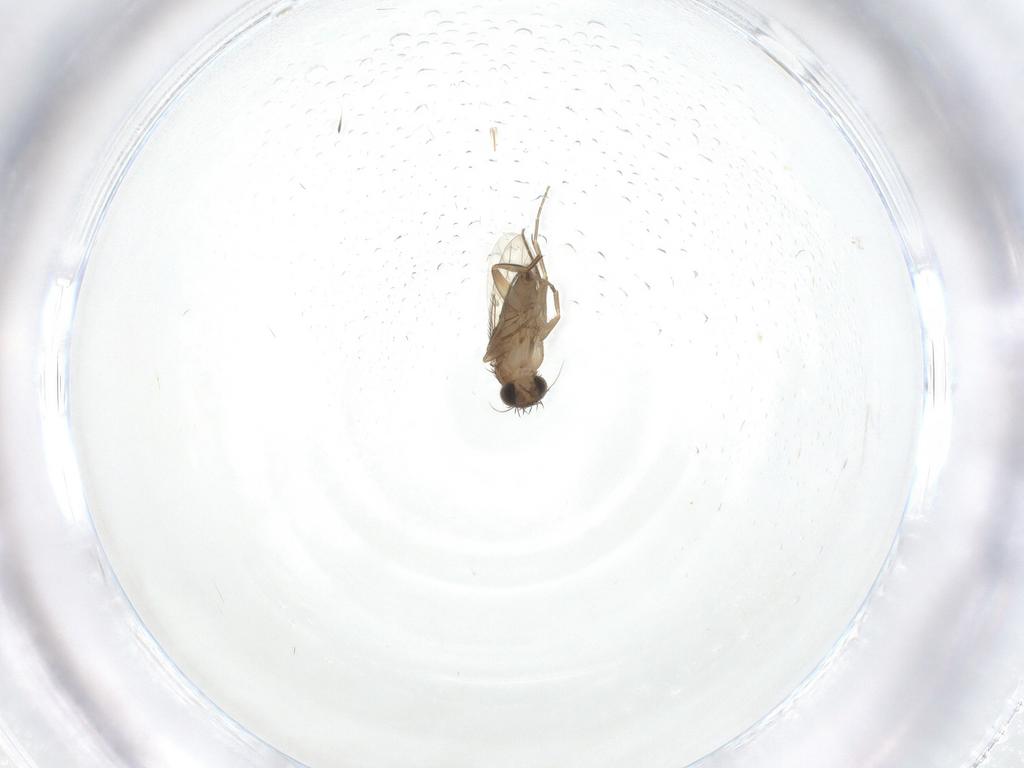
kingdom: Animalia
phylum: Arthropoda
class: Insecta
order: Diptera
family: Phoridae
